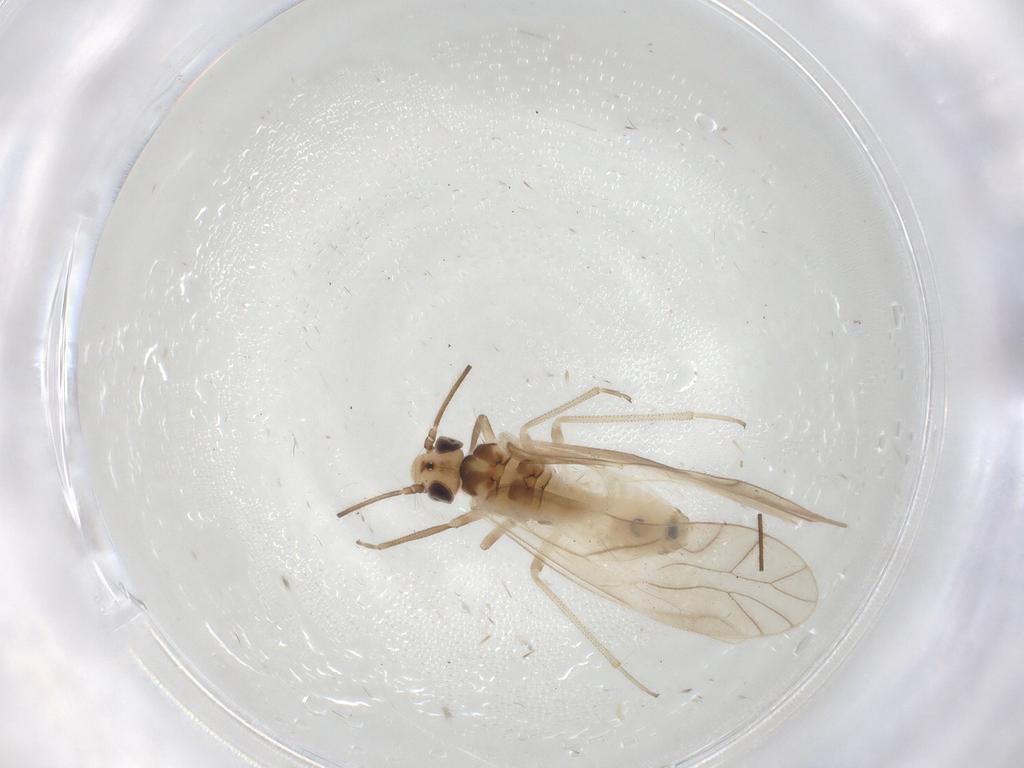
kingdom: Animalia
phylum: Arthropoda
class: Insecta
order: Psocodea
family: Caeciliusidae
